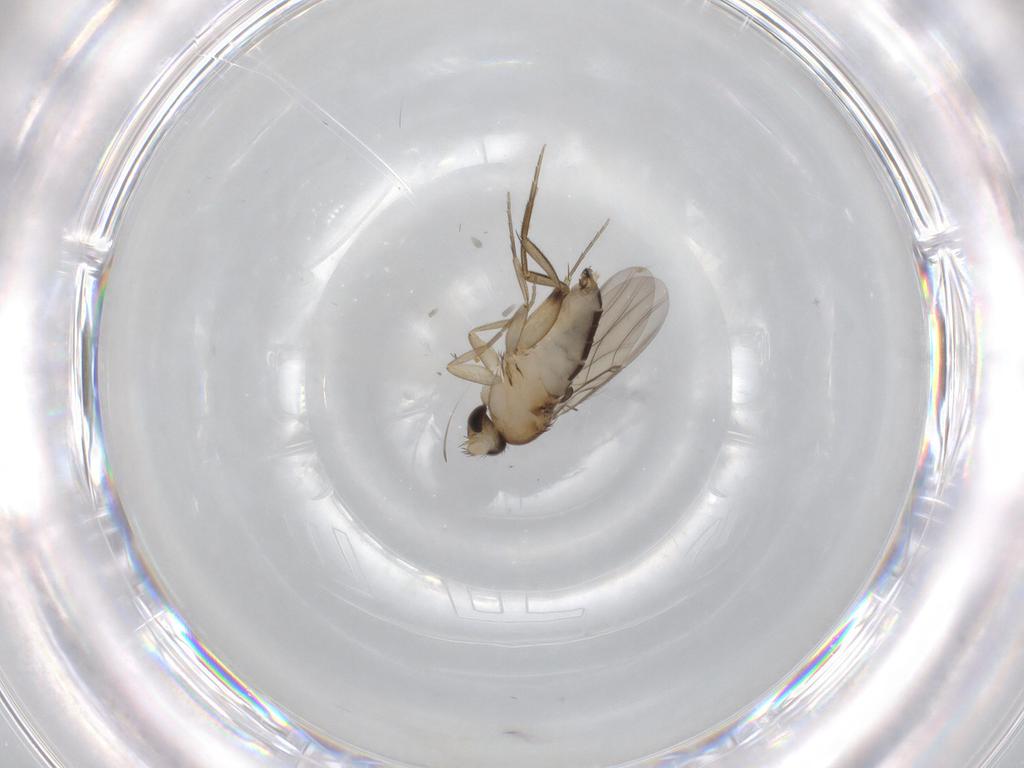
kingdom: Animalia
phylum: Arthropoda
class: Insecta
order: Diptera
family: Phoridae
